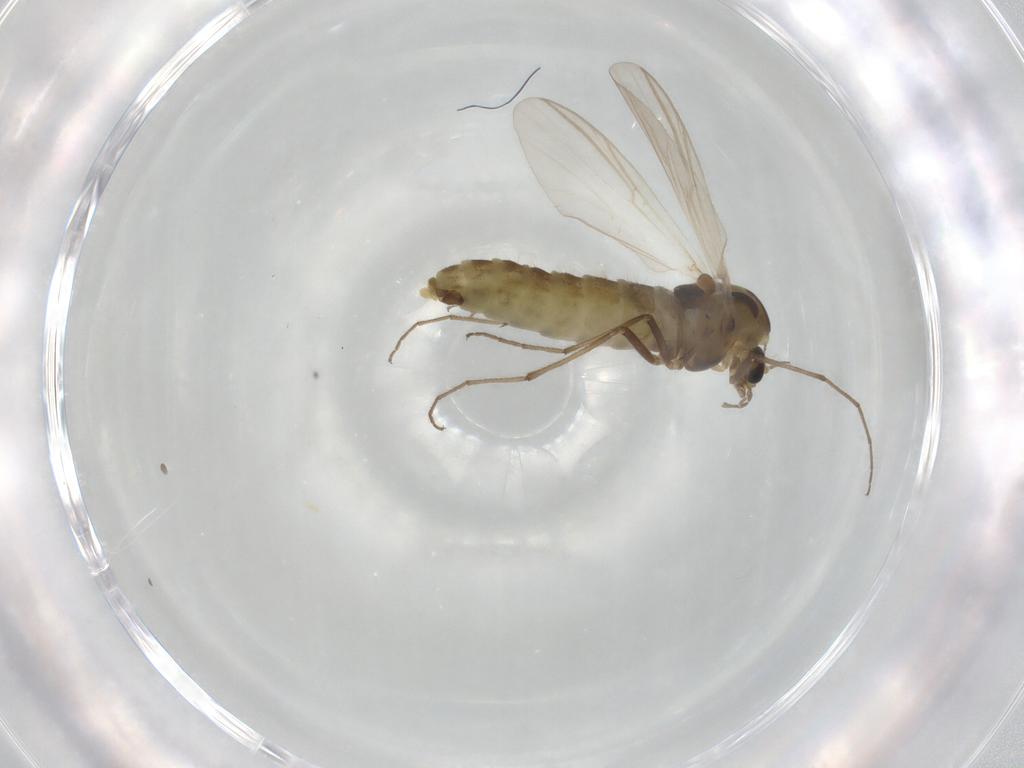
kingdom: Animalia
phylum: Arthropoda
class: Insecta
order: Diptera
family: Chironomidae
